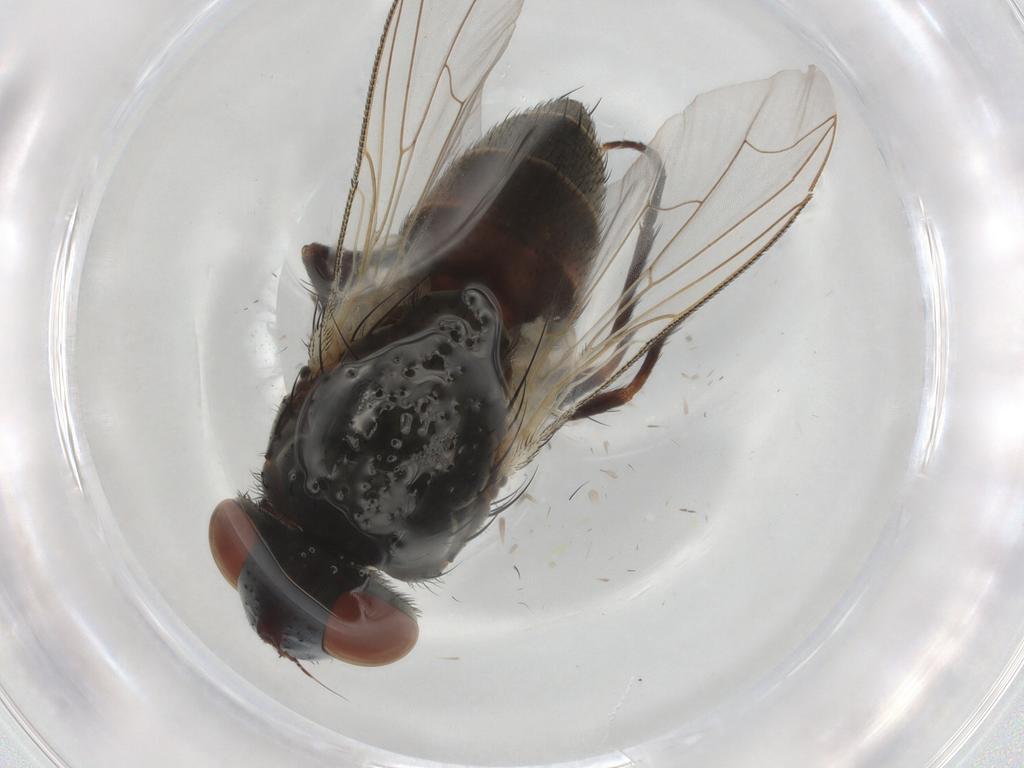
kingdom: Animalia
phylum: Arthropoda
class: Insecta
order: Diptera
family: Sarcophagidae
